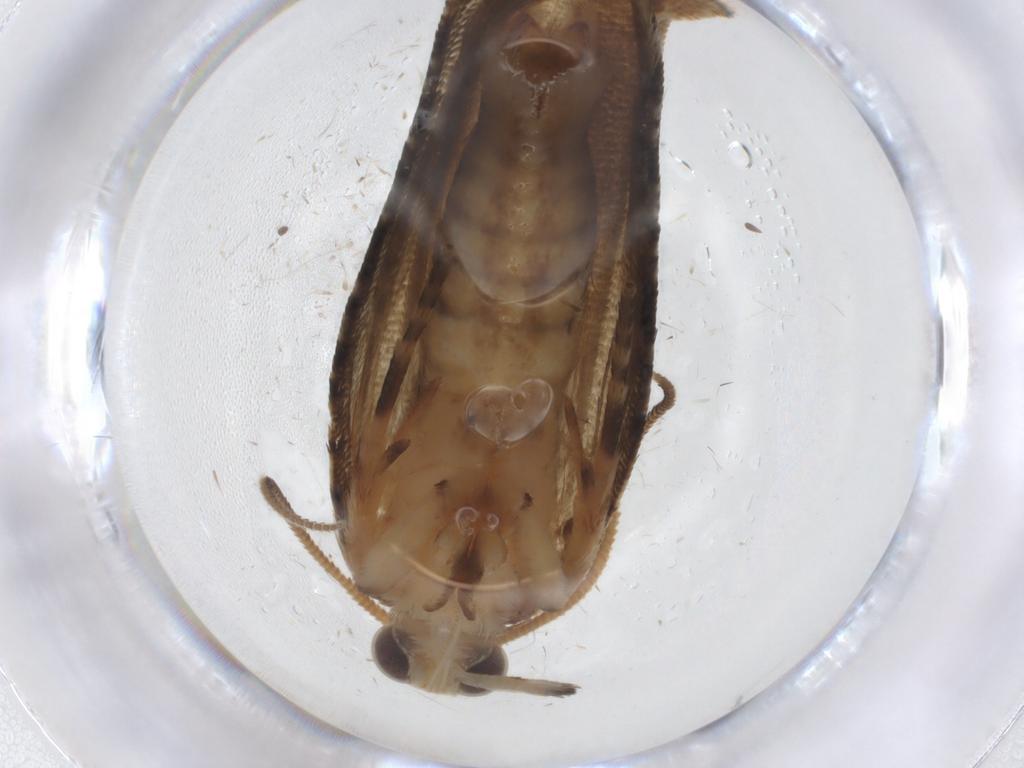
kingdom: Animalia
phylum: Arthropoda
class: Insecta
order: Lepidoptera
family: Tortricidae
